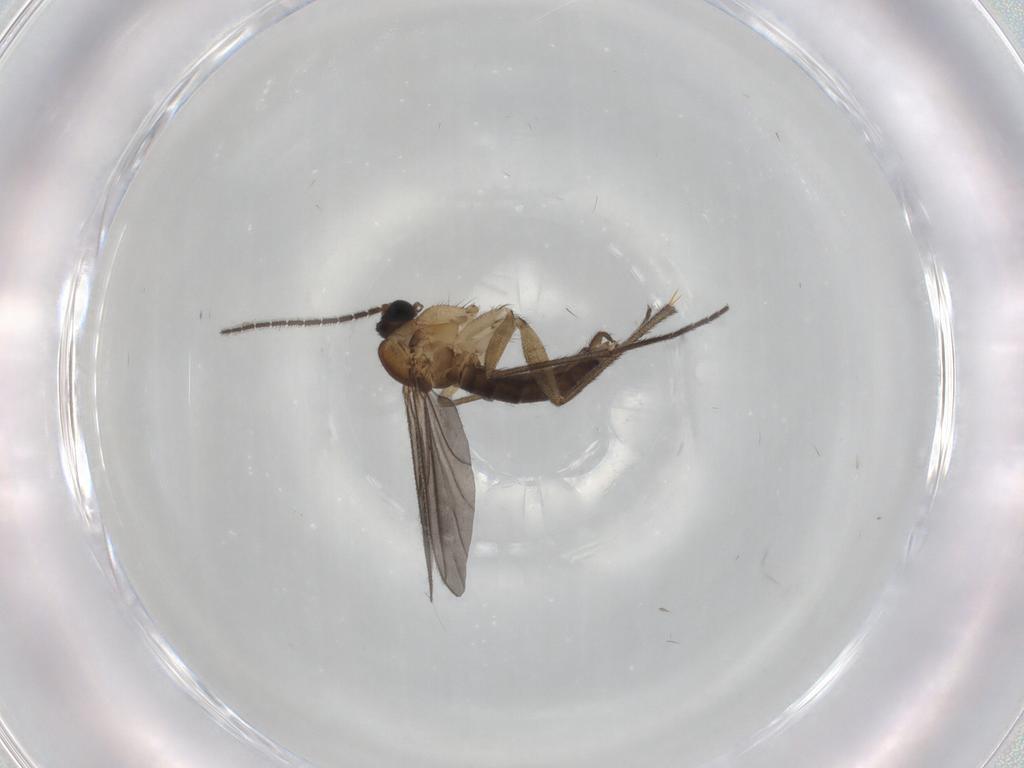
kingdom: Animalia
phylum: Arthropoda
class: Insecta
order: Diptera
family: Sciaridae
